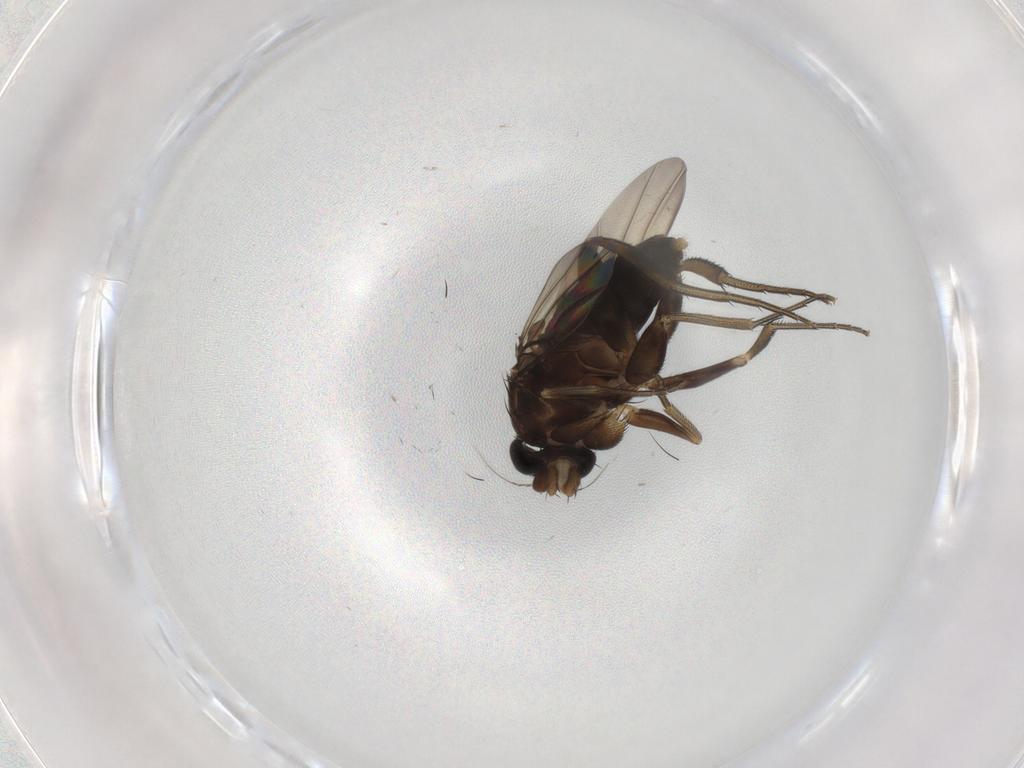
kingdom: Animalia
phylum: Arthropoda
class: Insecta
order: Diptera
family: Phoridae
